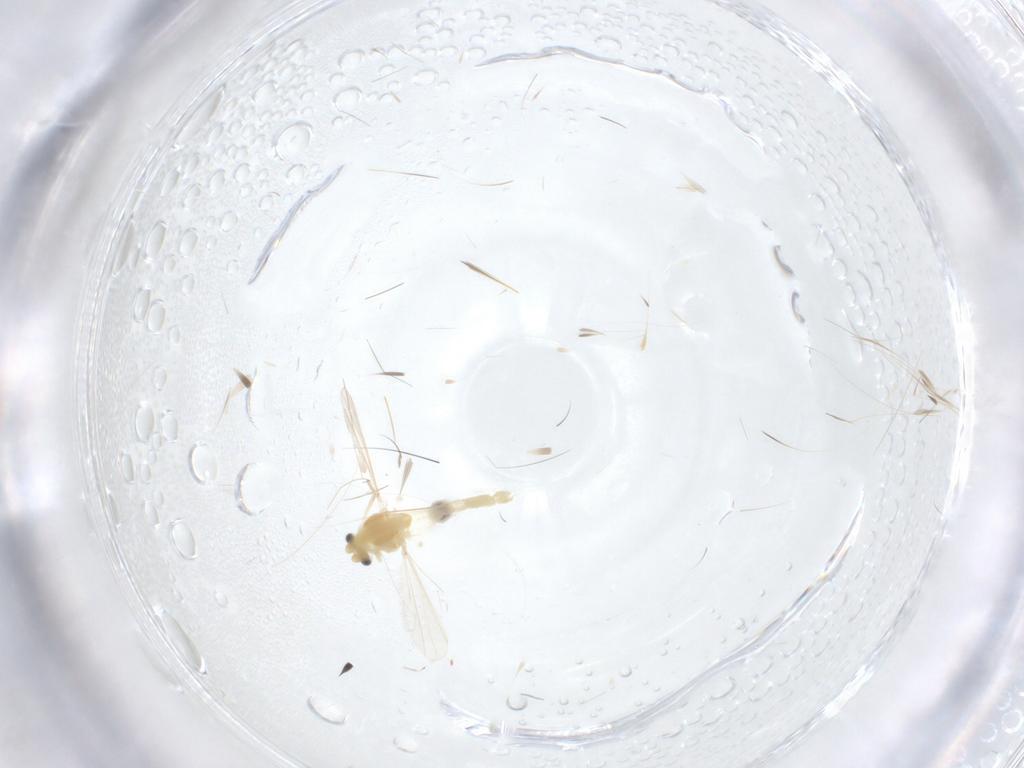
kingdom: Animalia
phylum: Arthropoda
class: Insecta
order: Diptera
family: Chironomidae
